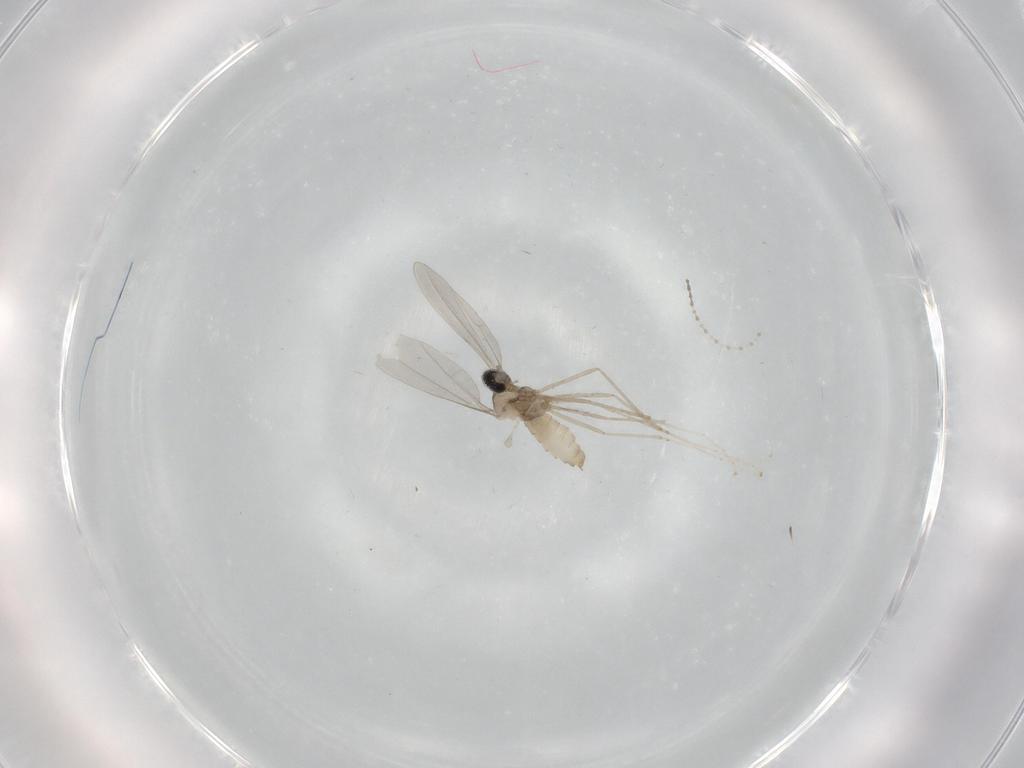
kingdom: Animalia
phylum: Arthropoda
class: Insecta
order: Diptera
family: Cecidomyiidae
